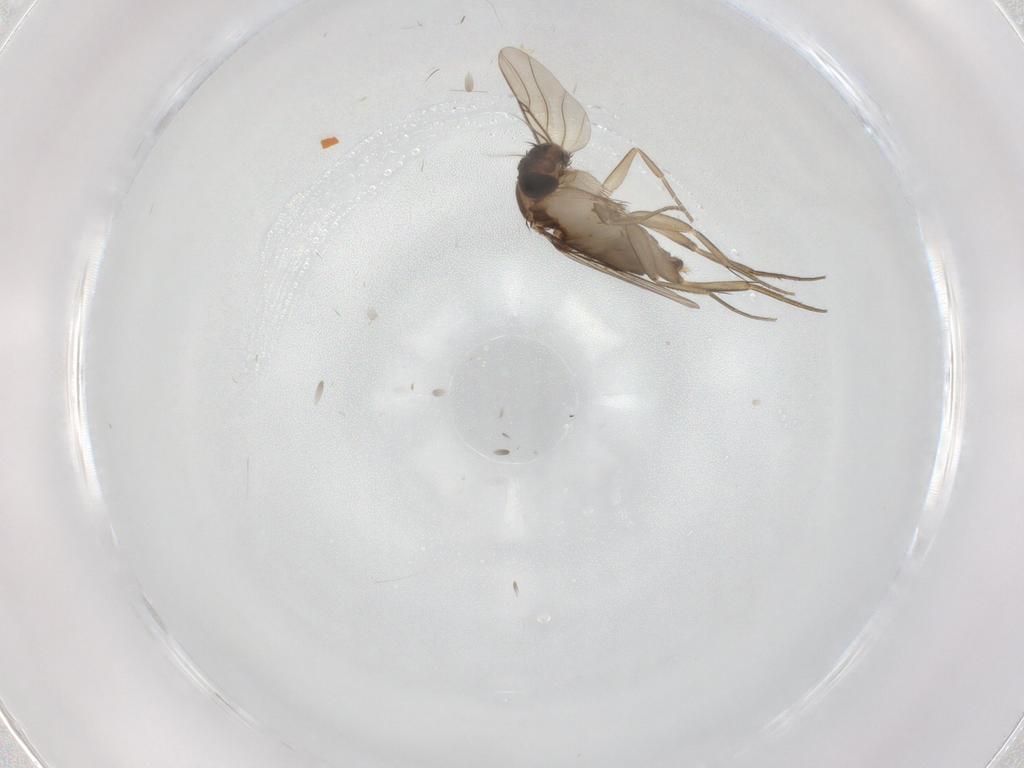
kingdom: Animalia
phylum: Arthropoda
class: Insecta
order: Diptera
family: Phoridae
